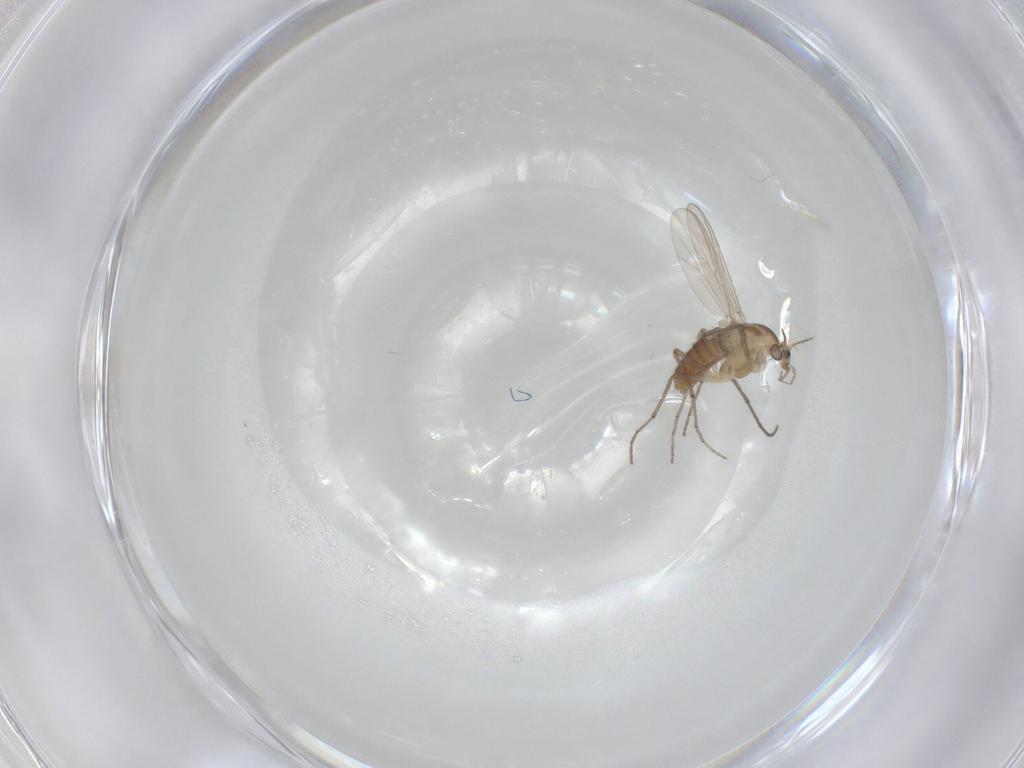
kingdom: Animalia
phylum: Arthropoda
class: Insecta
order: Diptera
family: Chironomidae
